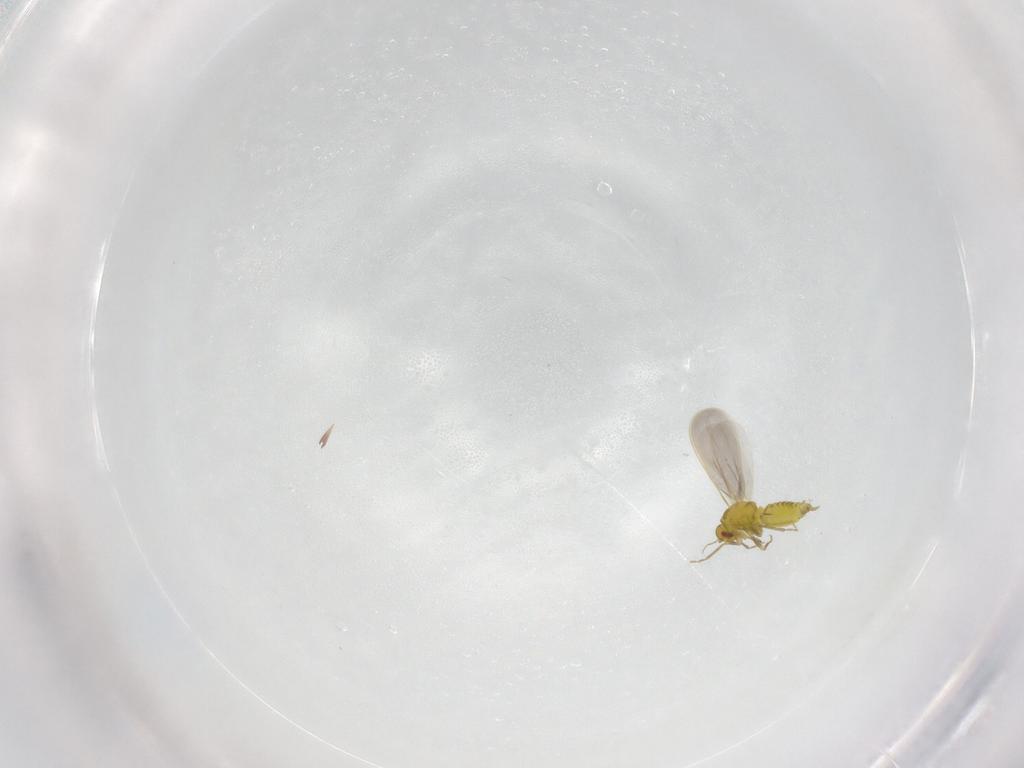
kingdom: Animalia
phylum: Arthropoda
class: Insecta
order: Hemiptera
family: Aleyrodidae
